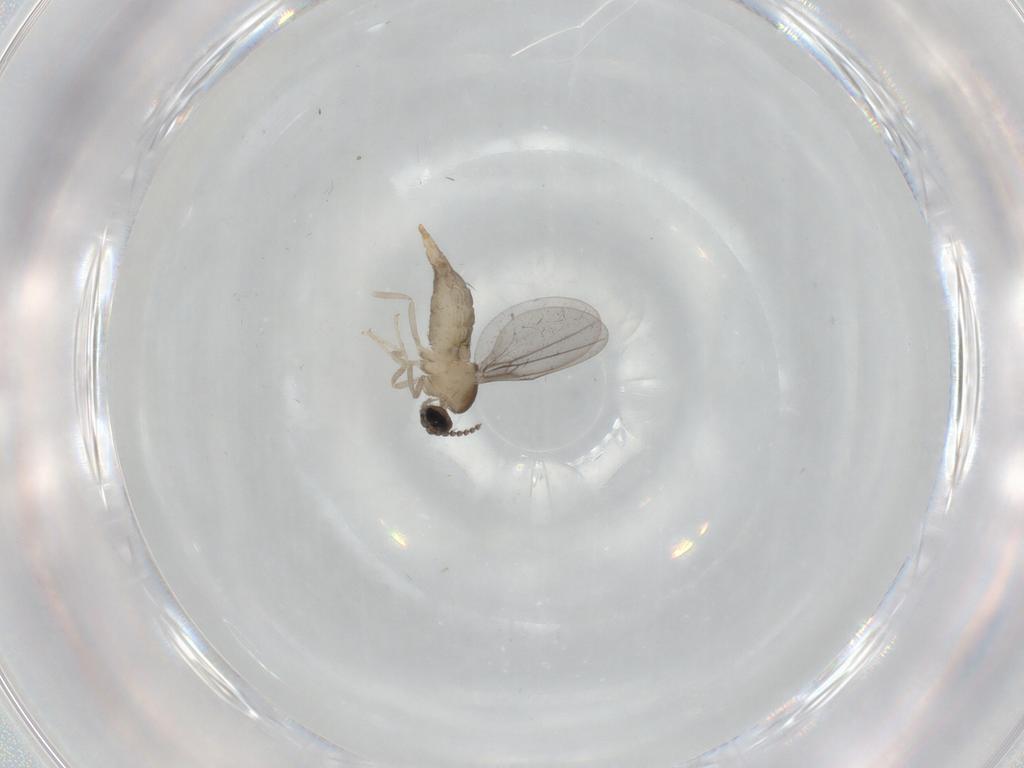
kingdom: Animalia
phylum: Arthropoda
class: Insecta
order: Diptera
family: Cecidomyiidae
